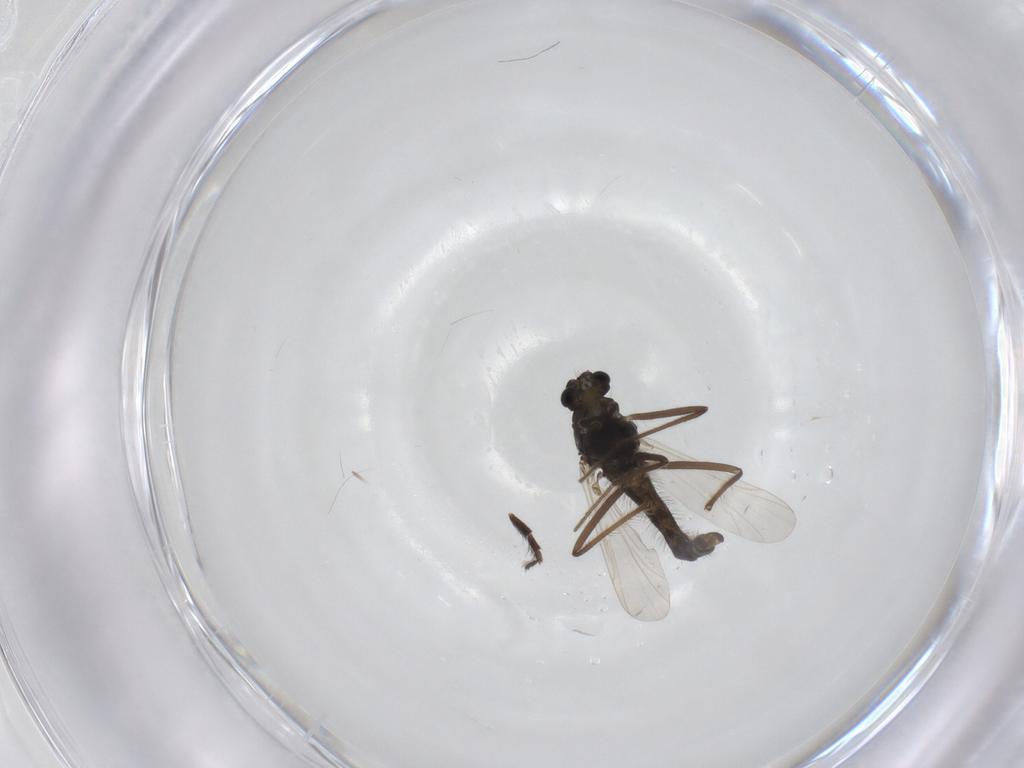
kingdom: Animalia
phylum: Arthropoda
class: Insecta
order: Diptera
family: Chironomidae
